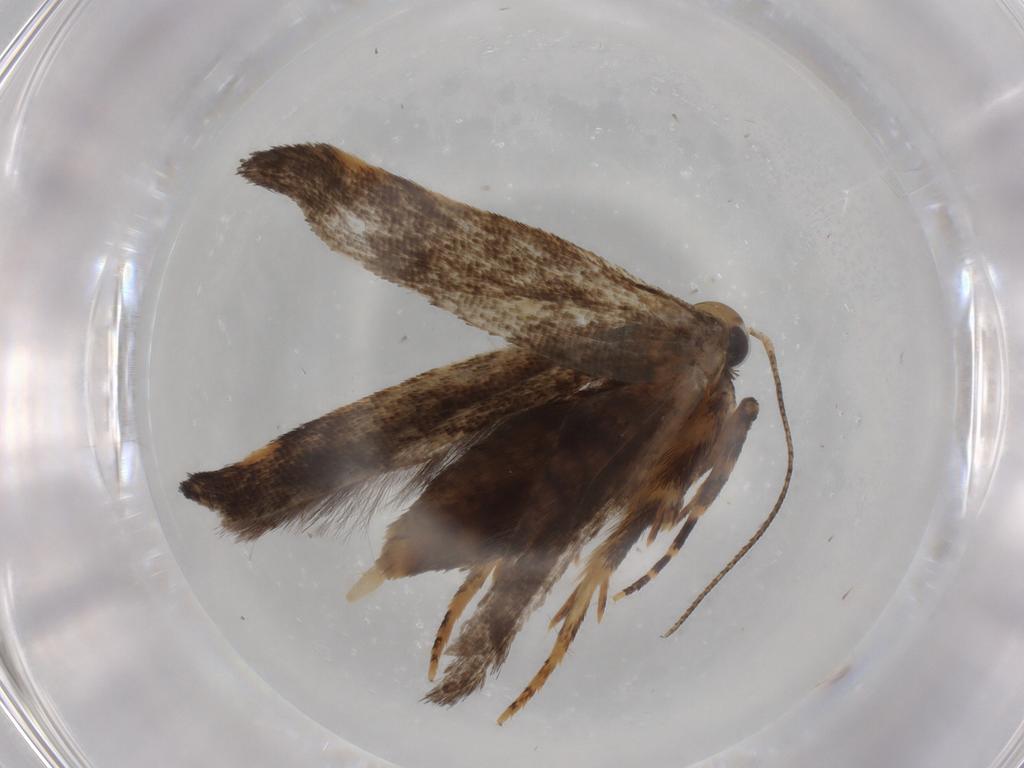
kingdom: Animalia
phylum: Arthropoda
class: Insecta
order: Lepidoptera
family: Gelechiidae
